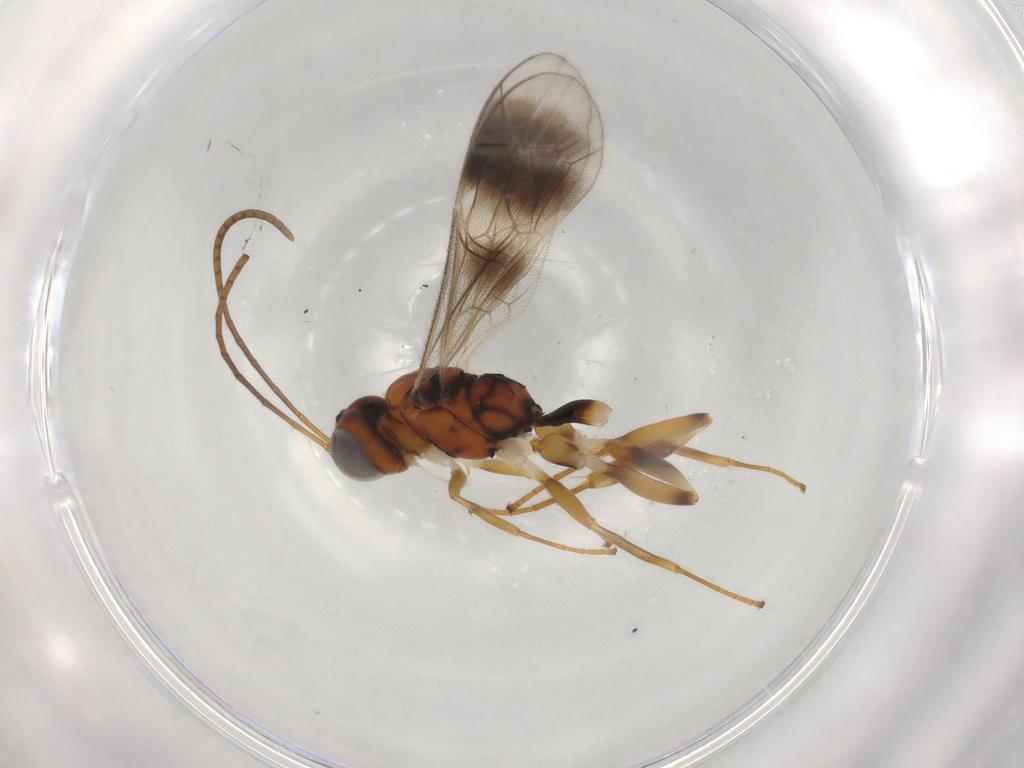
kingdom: Animalia
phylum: Arthropoda
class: Insecta
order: Hymenoptera
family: Ichneumonidae
